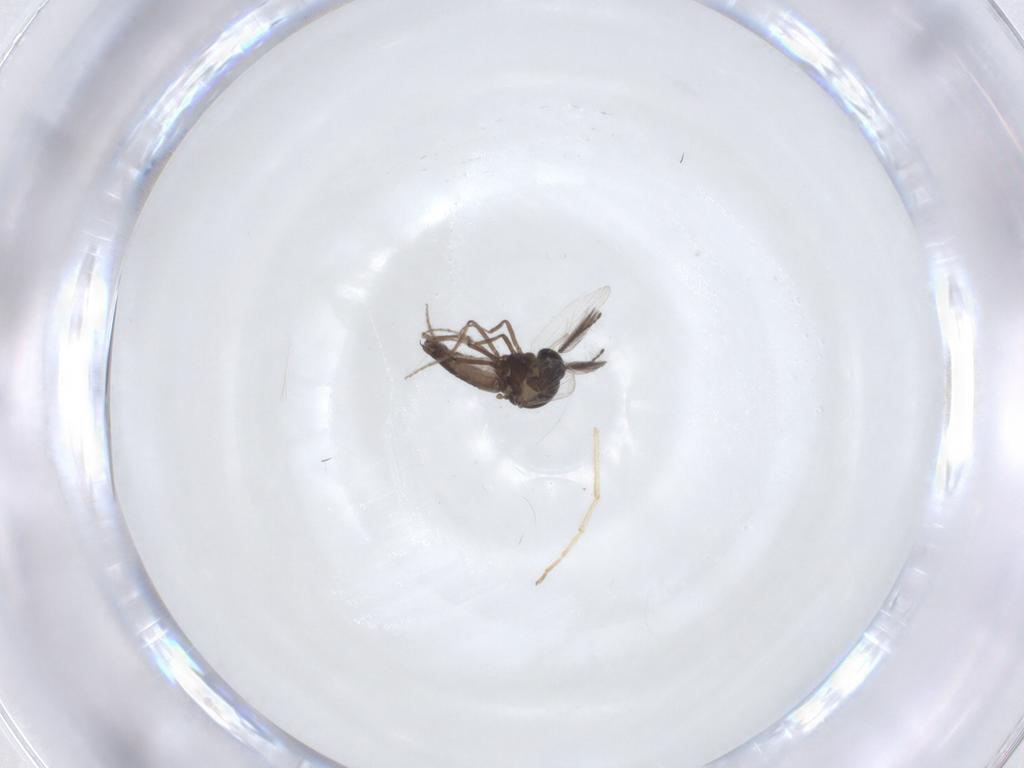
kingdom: Animalia
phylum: Arthropoda
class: Insecta
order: Diptera
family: Ceratopogonidae
